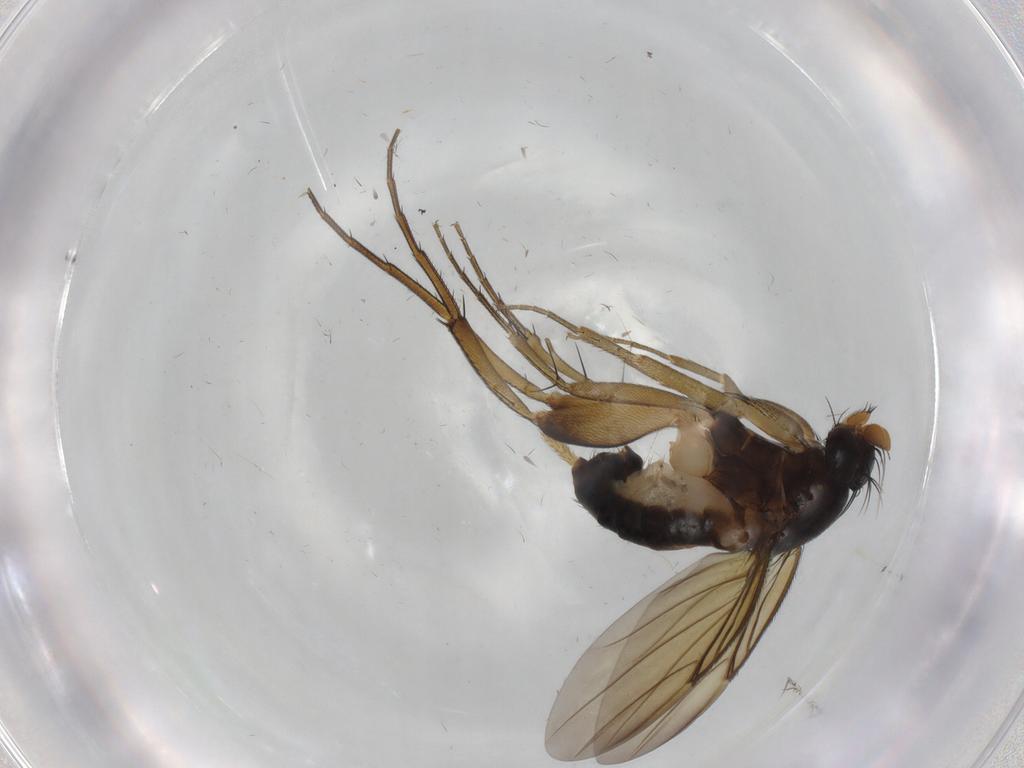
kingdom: Animalia
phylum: Arthropoda
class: Insecta
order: Diptera
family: Phoridae
